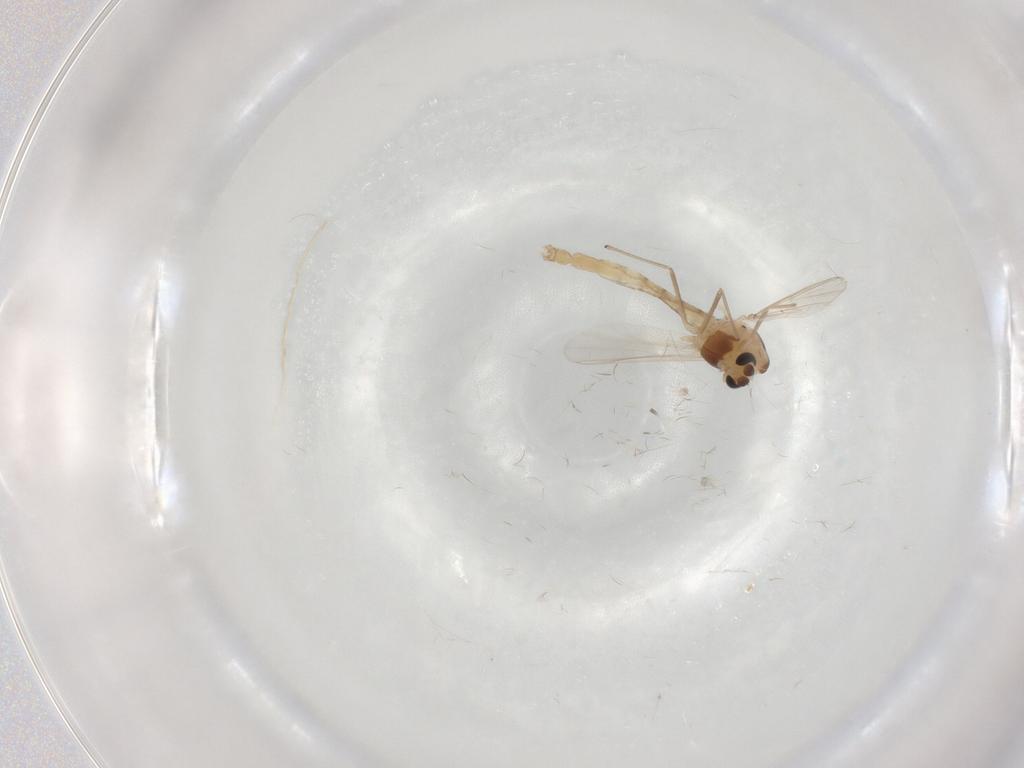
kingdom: Animalia
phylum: Arthropoda
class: Insecta
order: Diptera
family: Chironomidae
